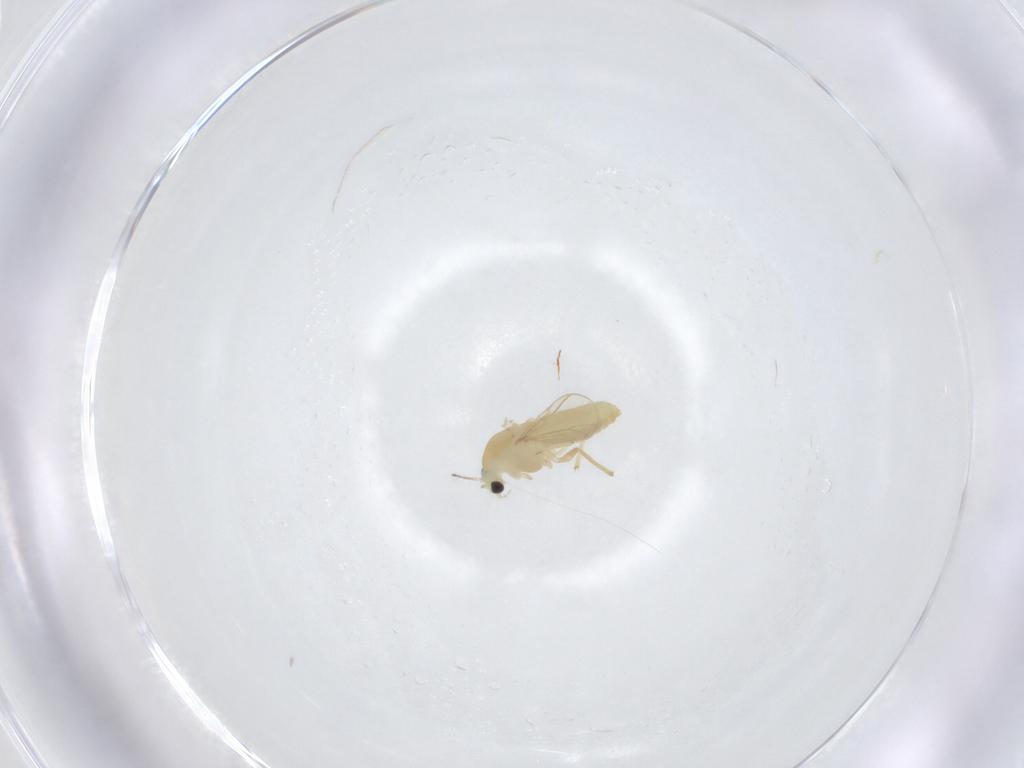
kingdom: Animalia
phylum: Arthropoda
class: Insecta
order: Diptera
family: Chironomidae
